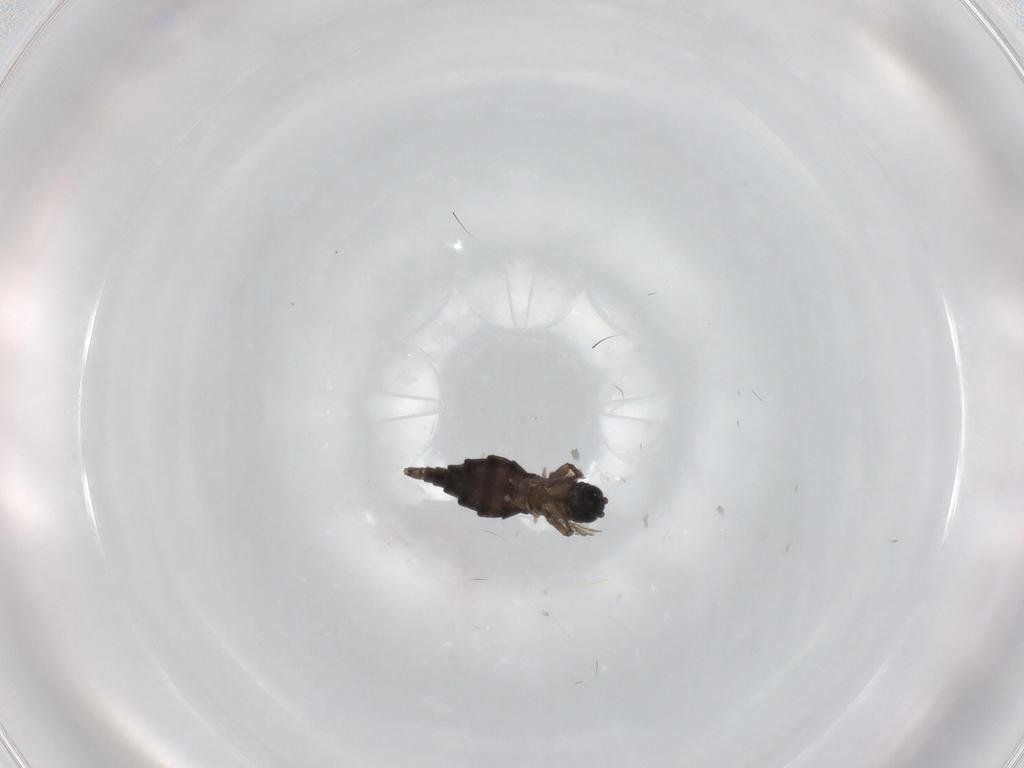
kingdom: Animalia
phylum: Arthropoda
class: Insecta
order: Diptera
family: Sciaridae
